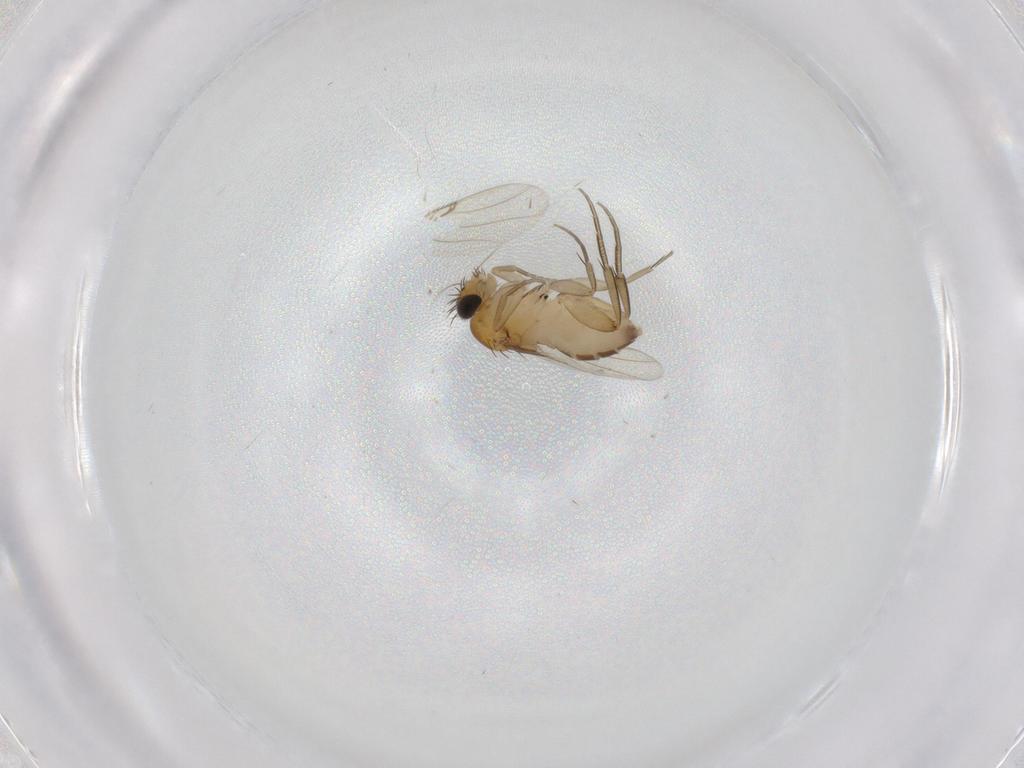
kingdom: Animalia
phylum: Arthropoda
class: Insecta
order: Diptera
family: Phoridae
